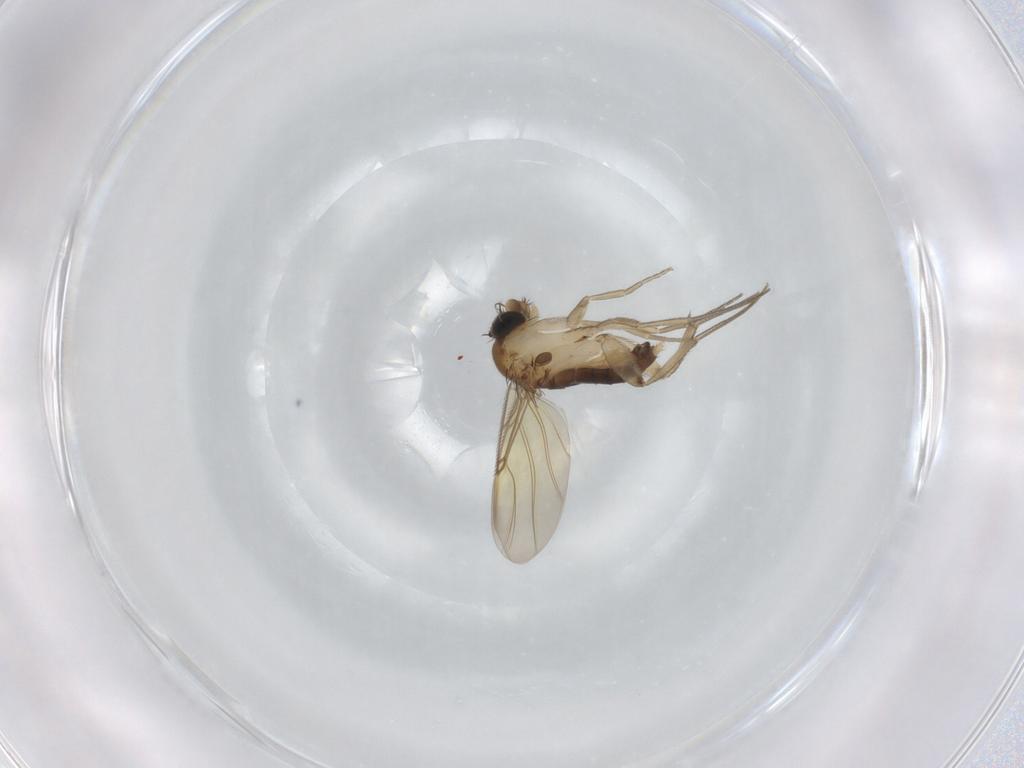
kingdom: Animalia
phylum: Arthropoda
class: Insecta
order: Diptera
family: Phoridae
